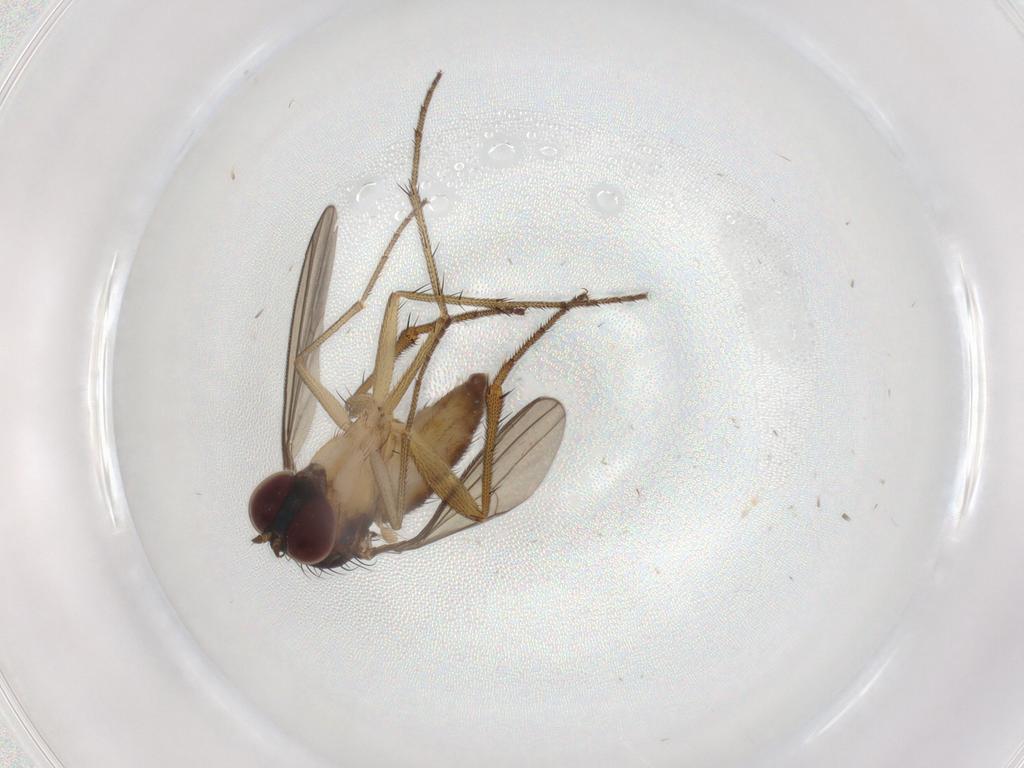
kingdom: Animalia
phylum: Arthropoda
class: Insecta
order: Diptera
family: Dolichopodidae
